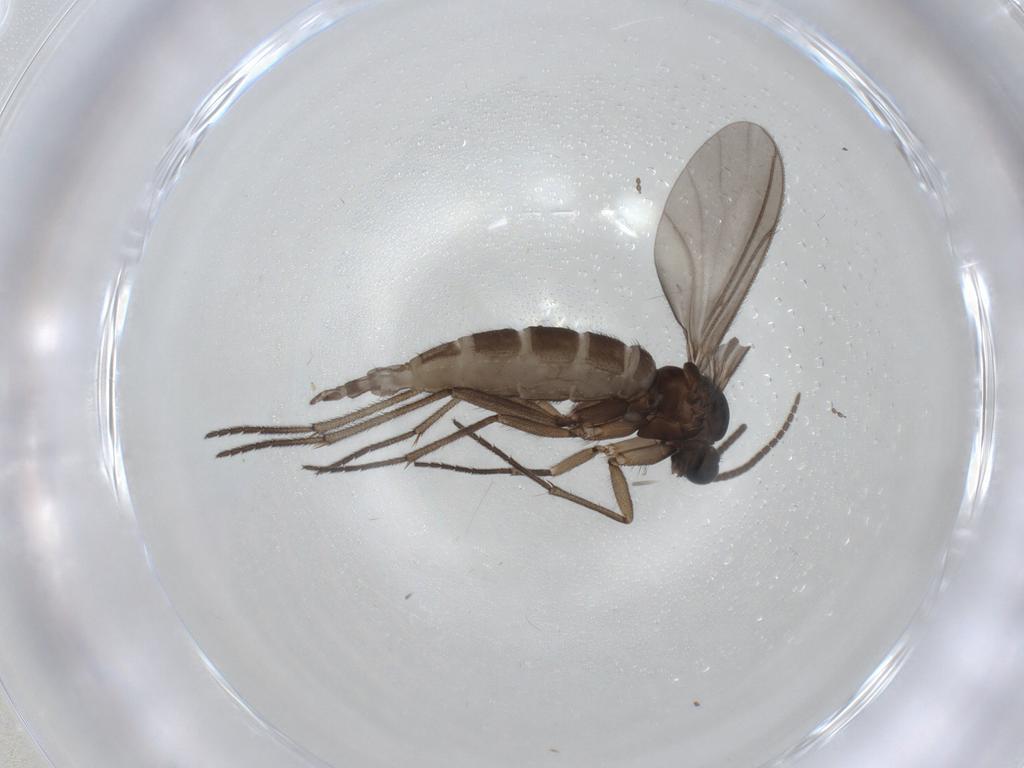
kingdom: Animalia
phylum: Arthropoda
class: Insecta
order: Diptera
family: Sciaridae
